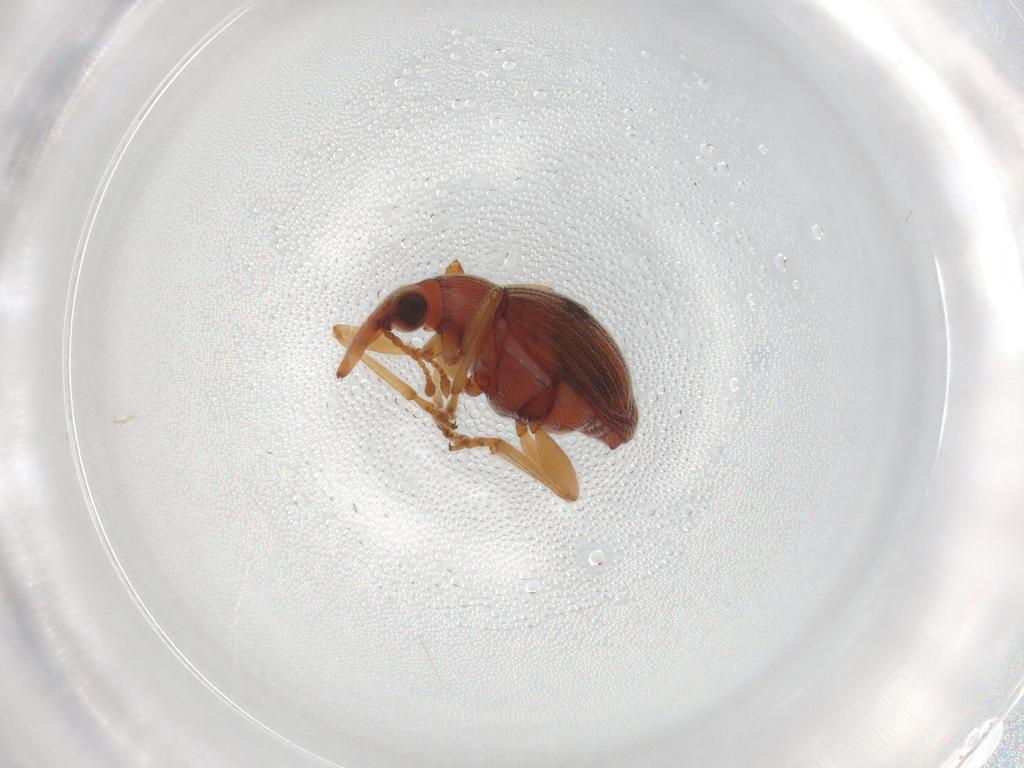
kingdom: Animalia
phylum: Arthropoda
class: Insecta
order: Coleoptera
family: Brentidae
